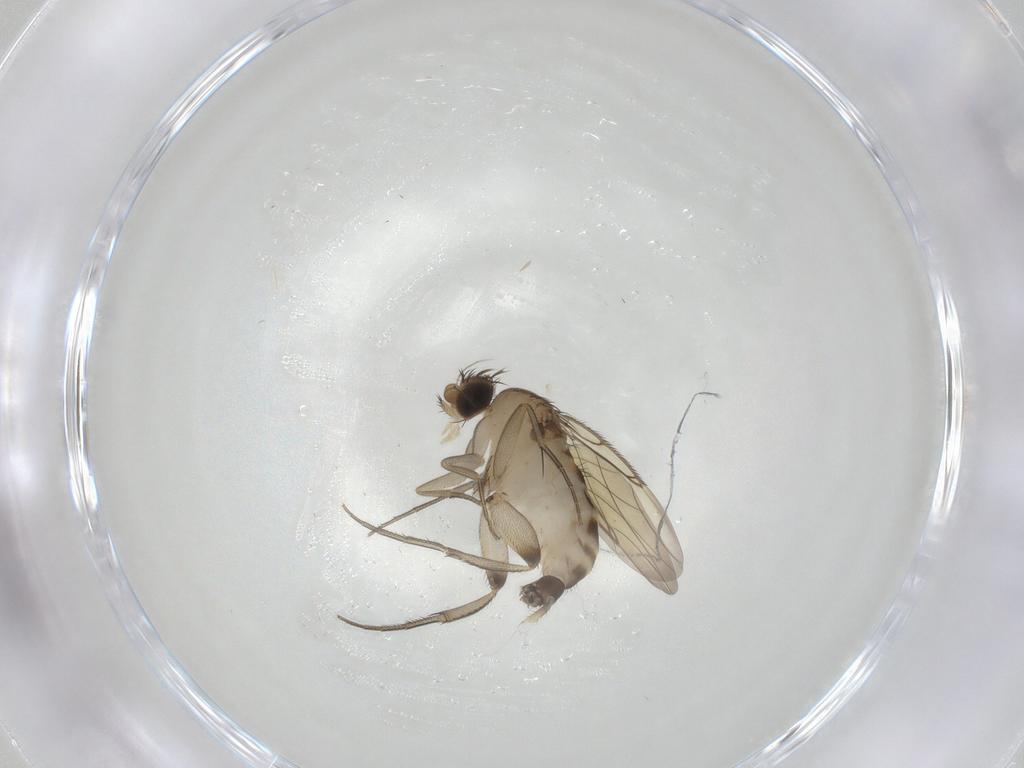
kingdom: Animalia
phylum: Arthropoda
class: Insecta
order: Diptera
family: Phoridae
